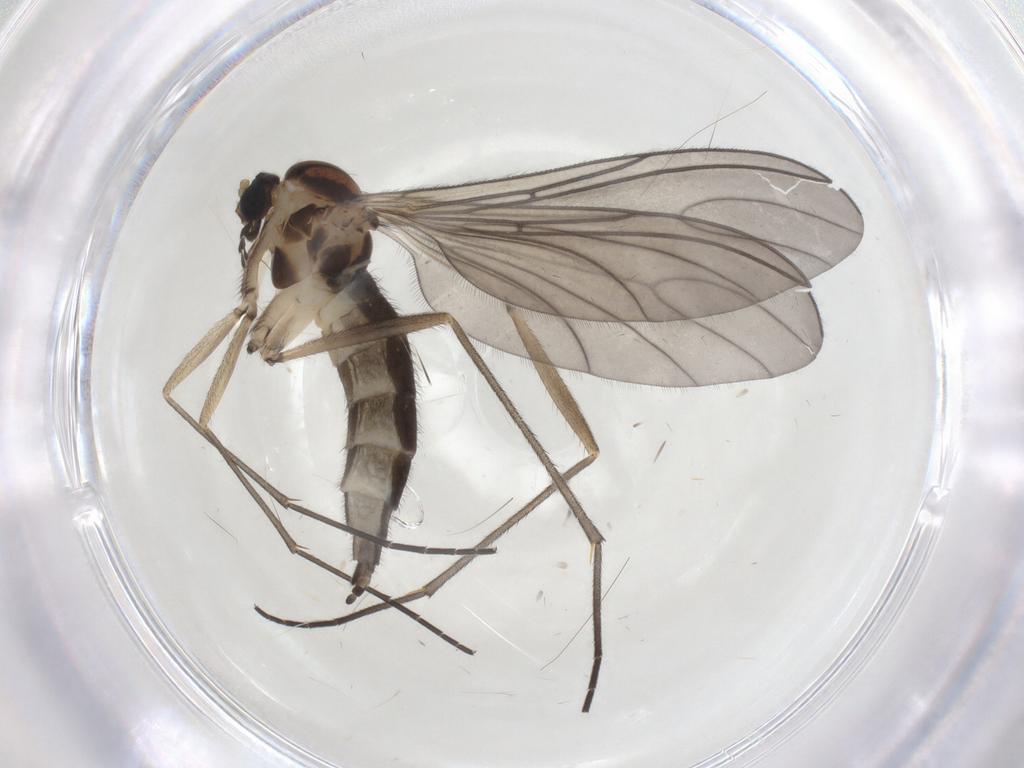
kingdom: Animalia
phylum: Arthropoda
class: Insecta
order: Diptera
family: Sciaridae
